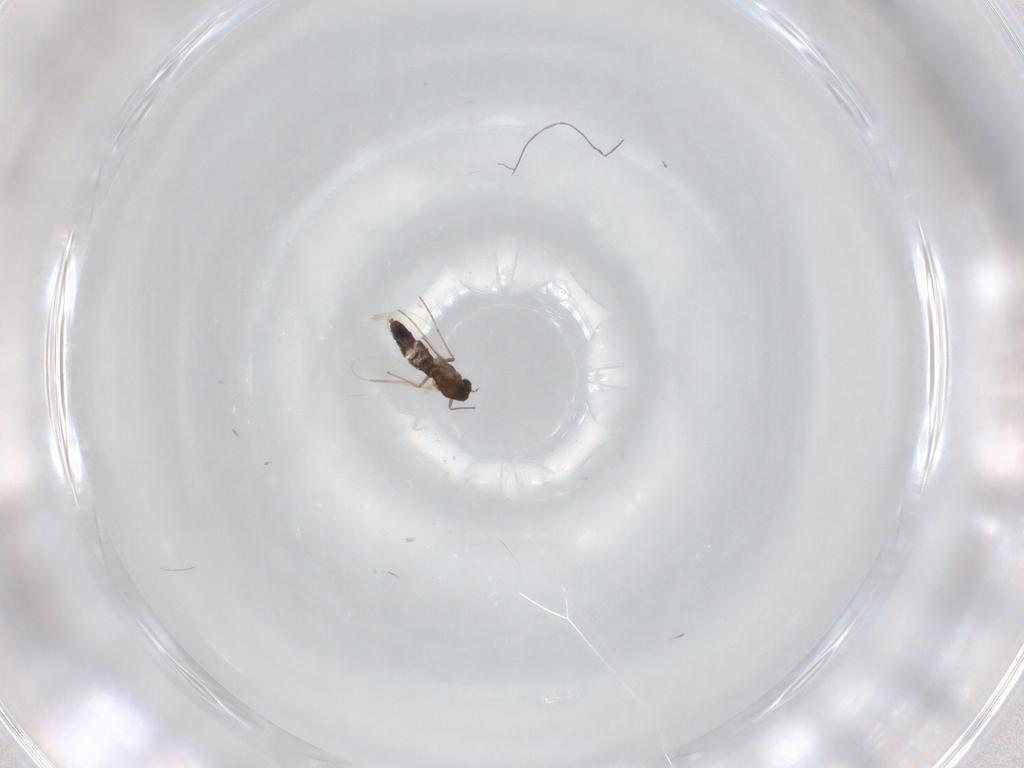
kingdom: Animalia
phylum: Arthropoda
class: Insecta
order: Diptera
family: Chironomidae
